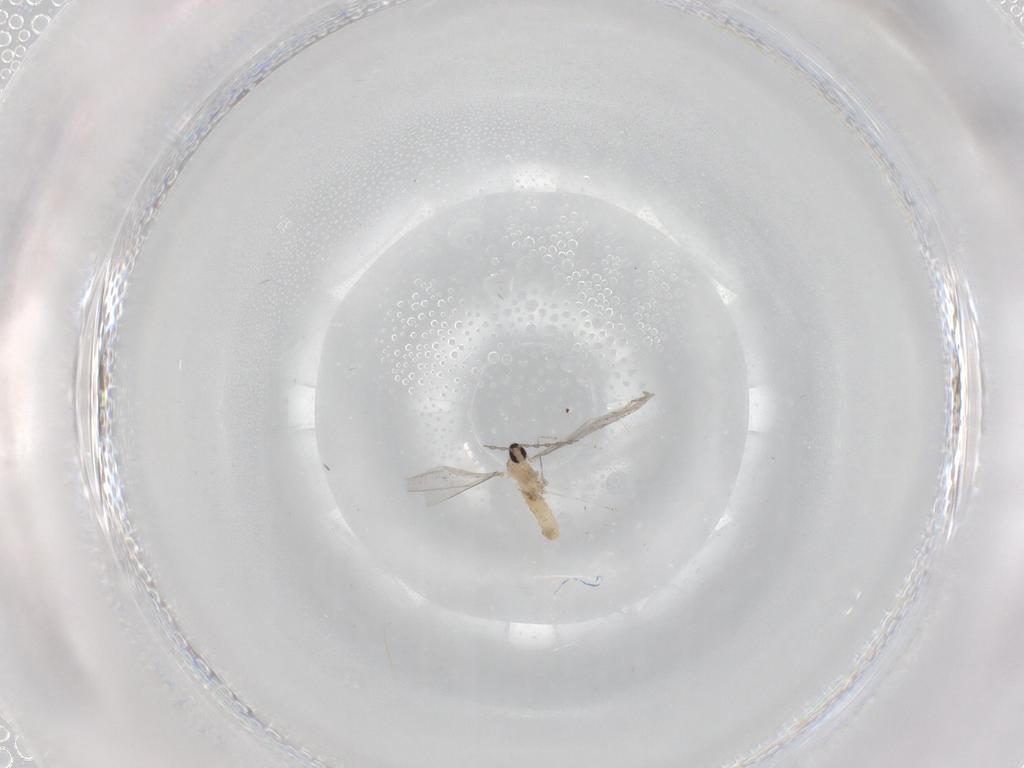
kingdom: Animalia
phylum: Arthropoda
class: Insecta
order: Diptera
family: Cecidomyiidae
